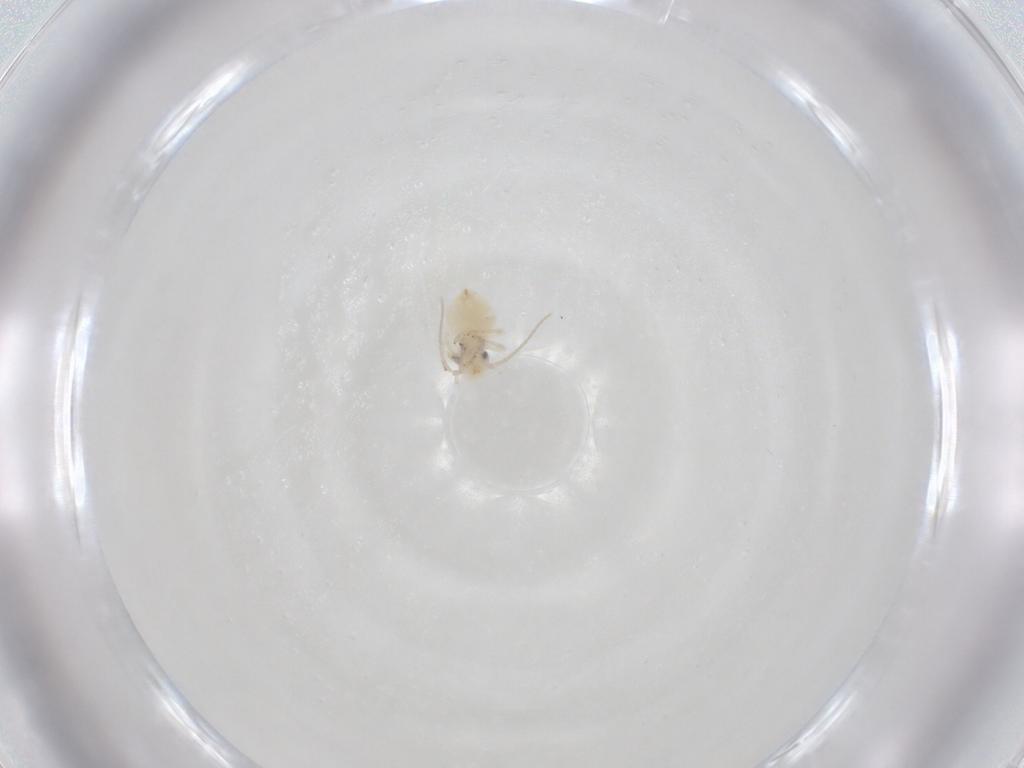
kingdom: Animalia
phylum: Arthropoda
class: Insecta
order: Psocodea
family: Caeciliusidae
